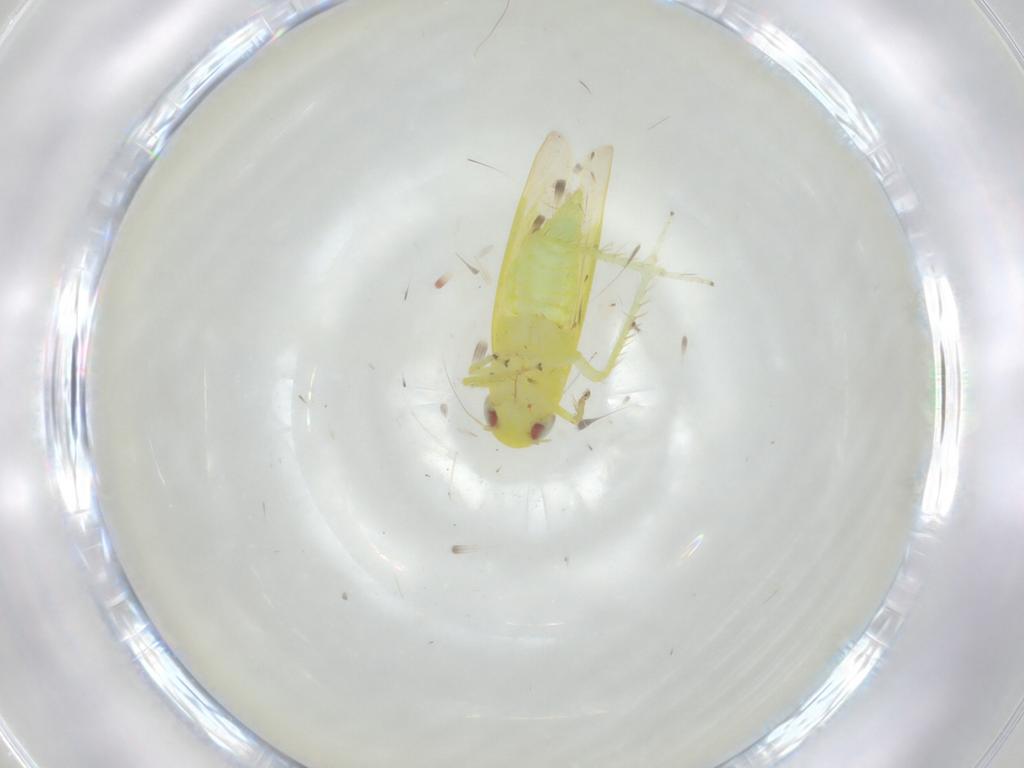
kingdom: Animalia
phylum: Arthropoda
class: Insecta
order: Hemiptera
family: Cicadellidae
